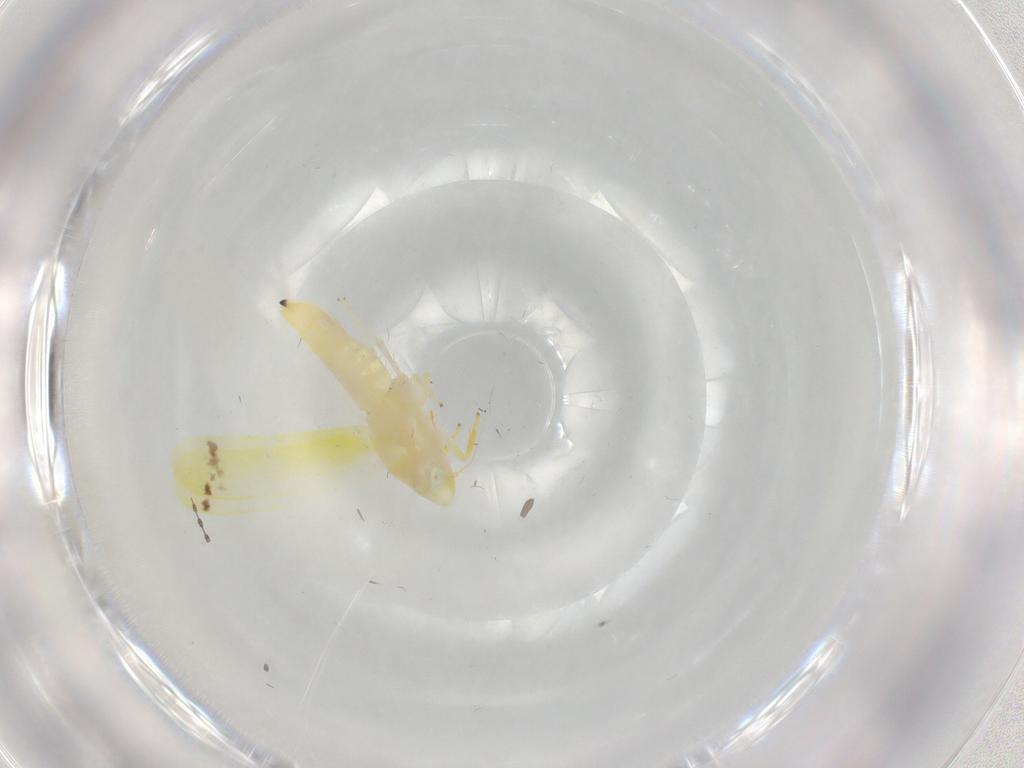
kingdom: Animalia
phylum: Arthropoda
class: Insecta
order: Hemiptera
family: Cicadellidae
